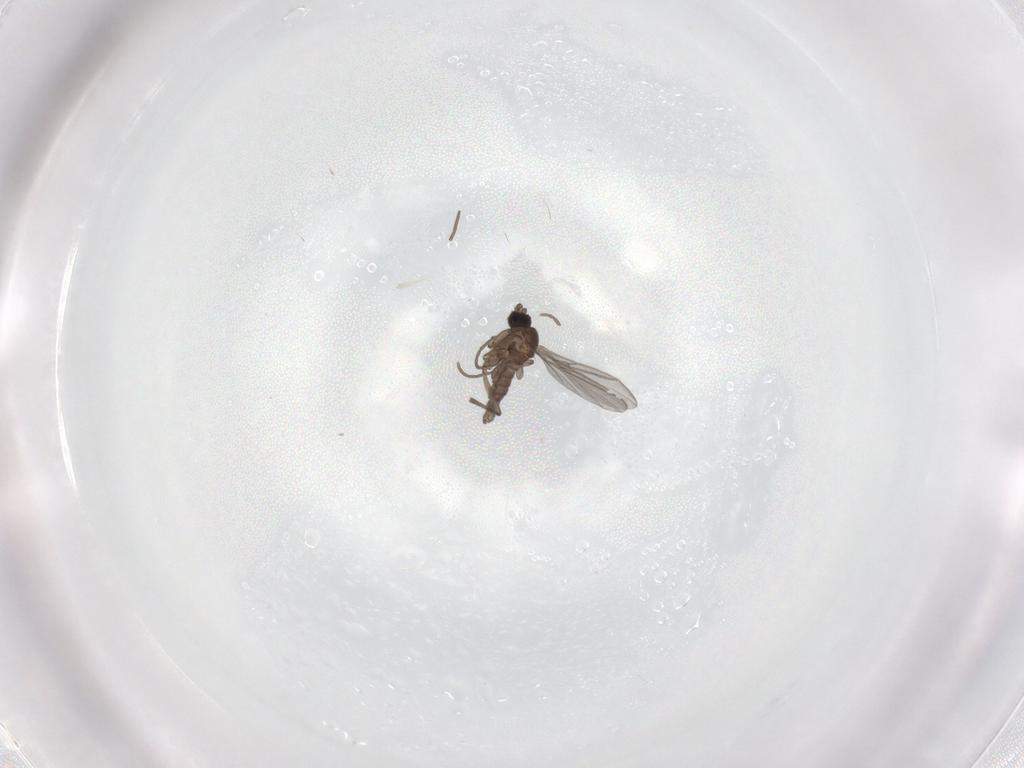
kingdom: Animalia
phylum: Arthropoda
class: Insecta
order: Diptera
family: Sciaridae
